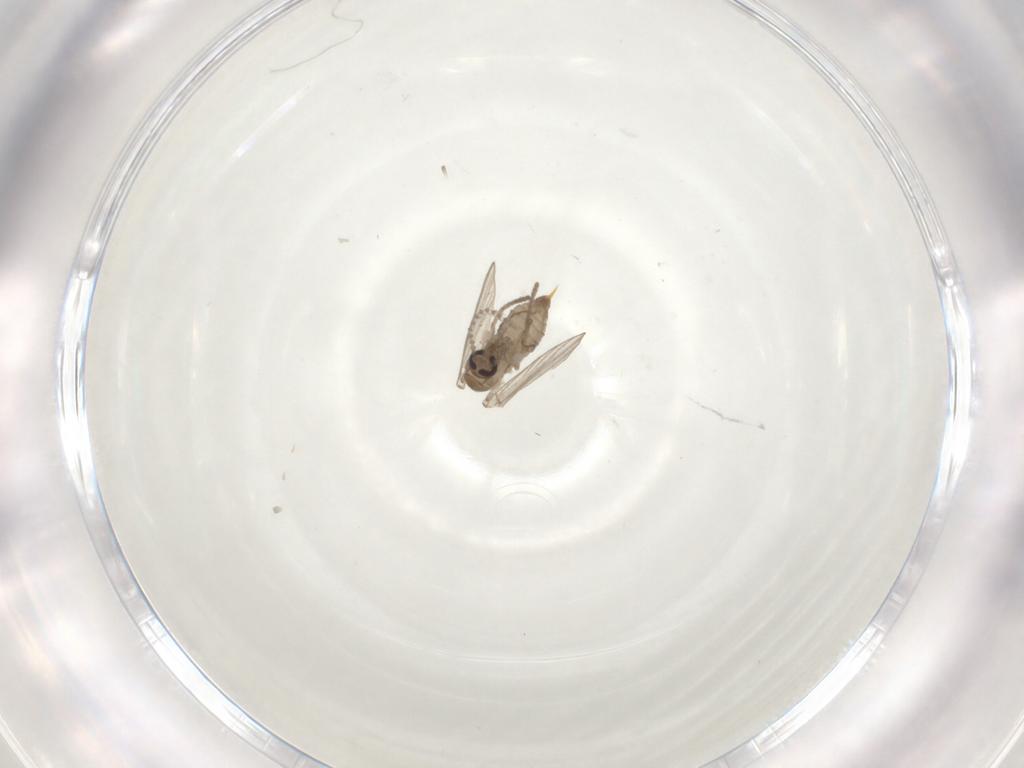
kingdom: Animalia
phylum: Arthropoda
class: Insecta
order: Diptera
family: Psychodidae
